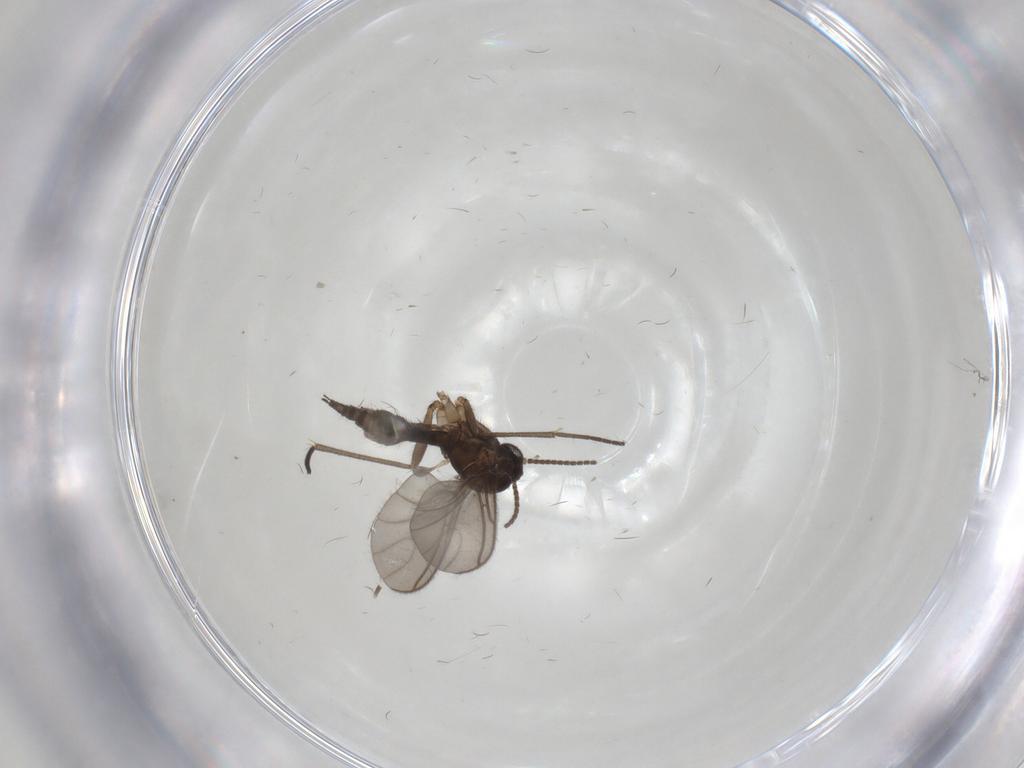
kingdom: Animalia
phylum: Arthropoda
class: Insecta
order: Diptera
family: Sciaridae
